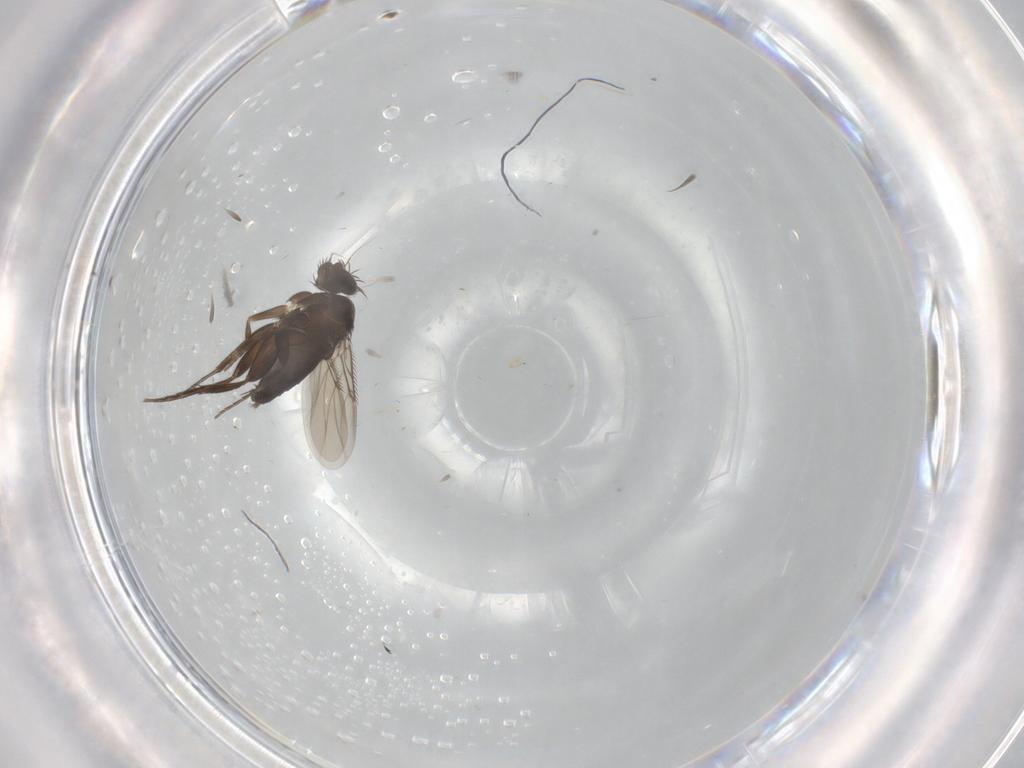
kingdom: Animalia
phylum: Arthropoda
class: Insecta
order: Diptera
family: Phoridae
